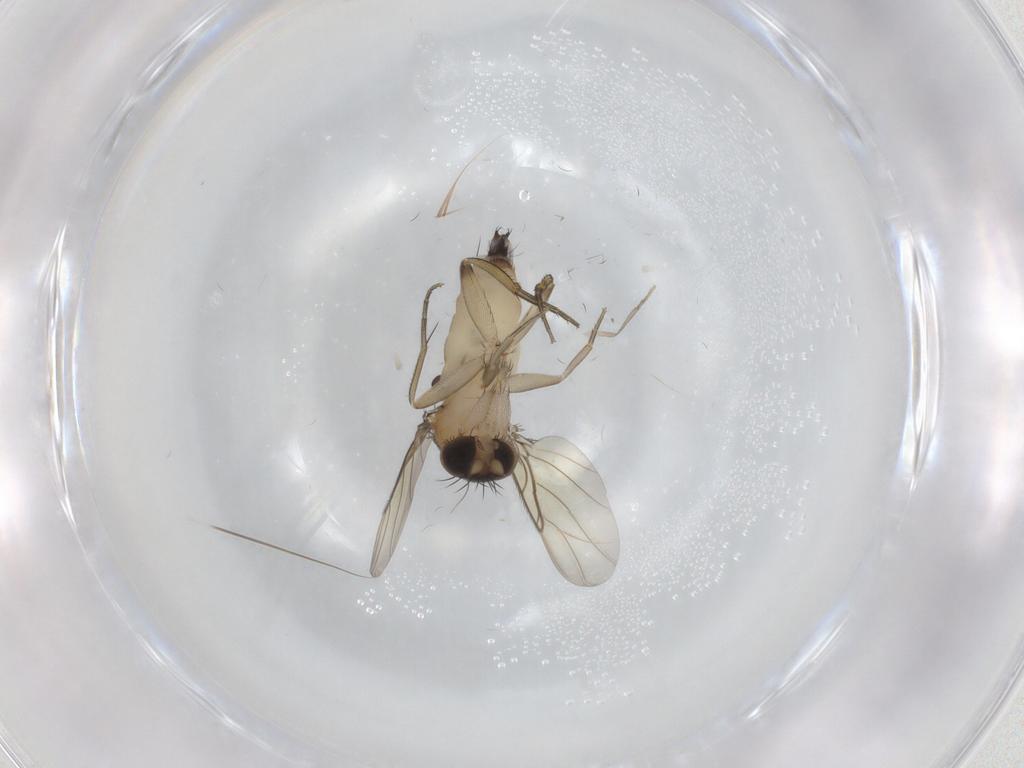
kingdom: Animalia
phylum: Arthropoda
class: Insecta
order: Diptera
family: Phoridae
